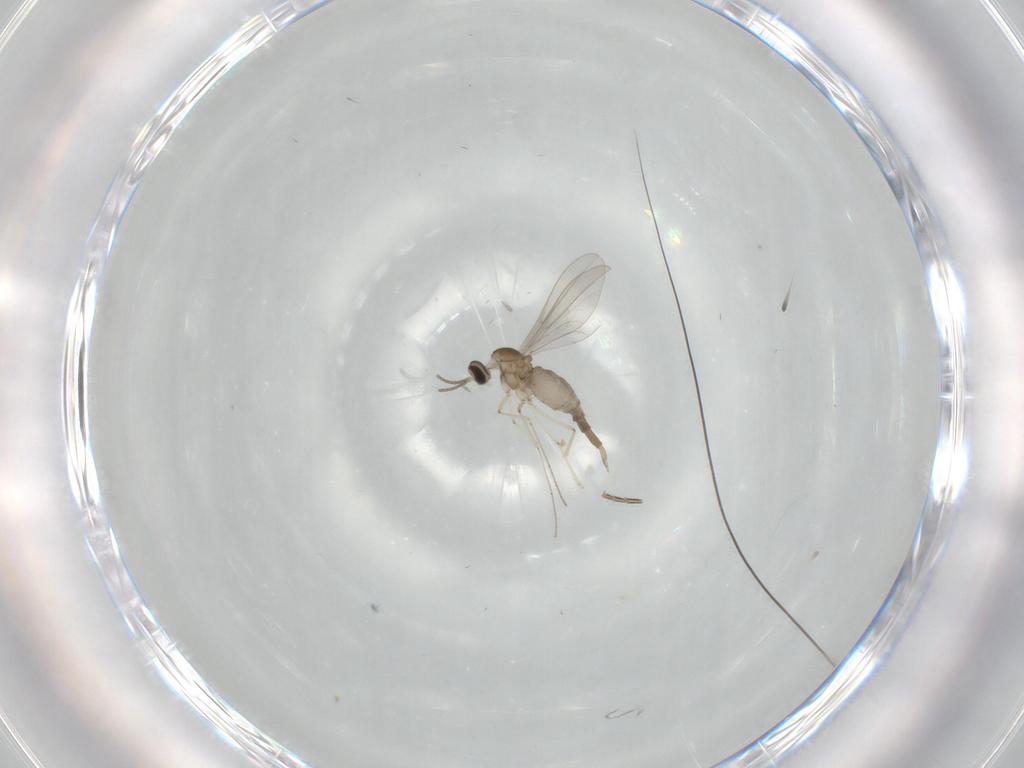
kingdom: Animalia
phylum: Arthropoda
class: Insecta
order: Diptera
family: Cecidomyiidae
